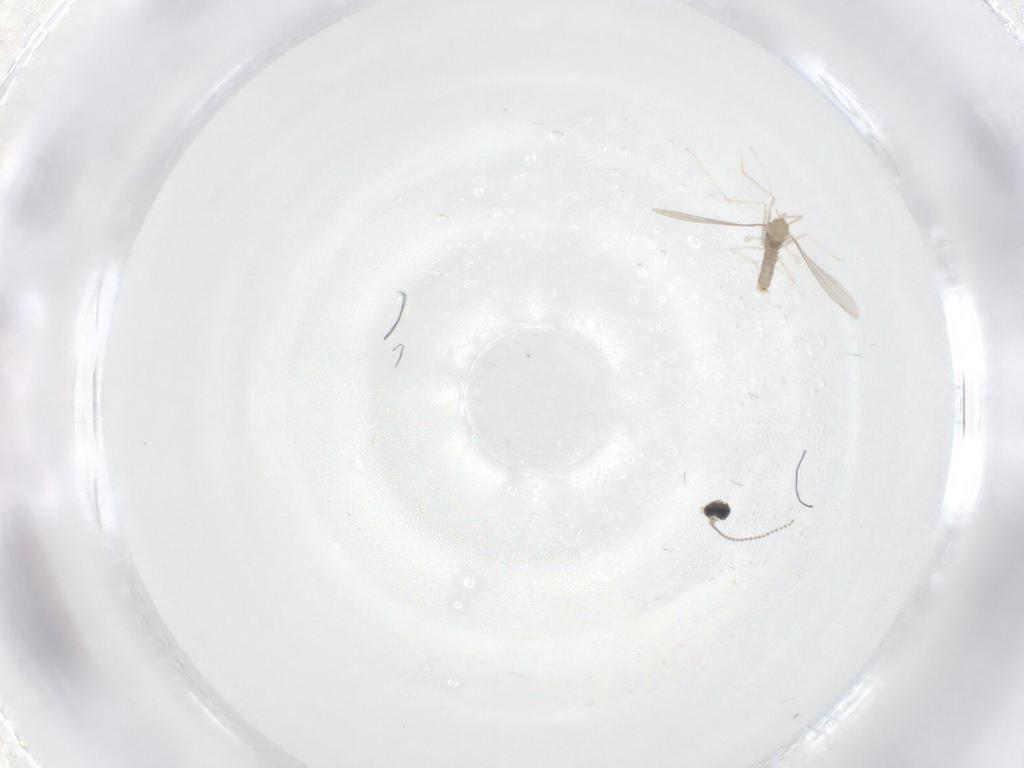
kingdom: Animalia
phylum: Arthropoda
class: Insecta
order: Diptera
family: Cecidomyiidae
